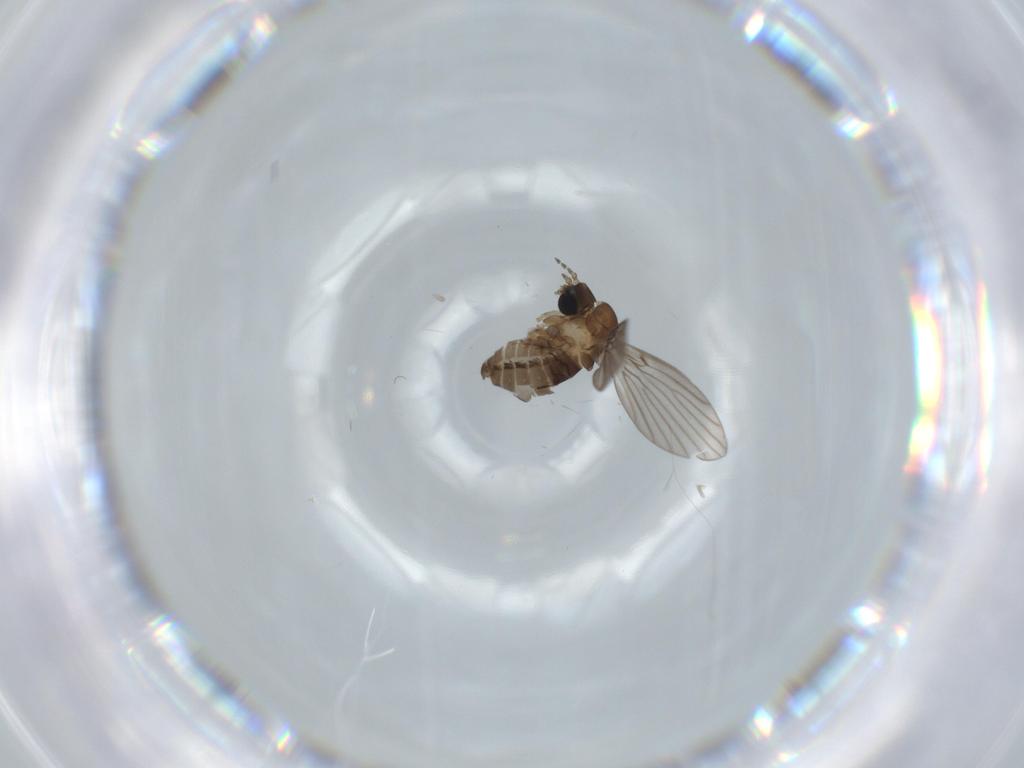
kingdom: Animalia
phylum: Arthropoda
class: Insecta
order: Diptera
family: Psychodidae
